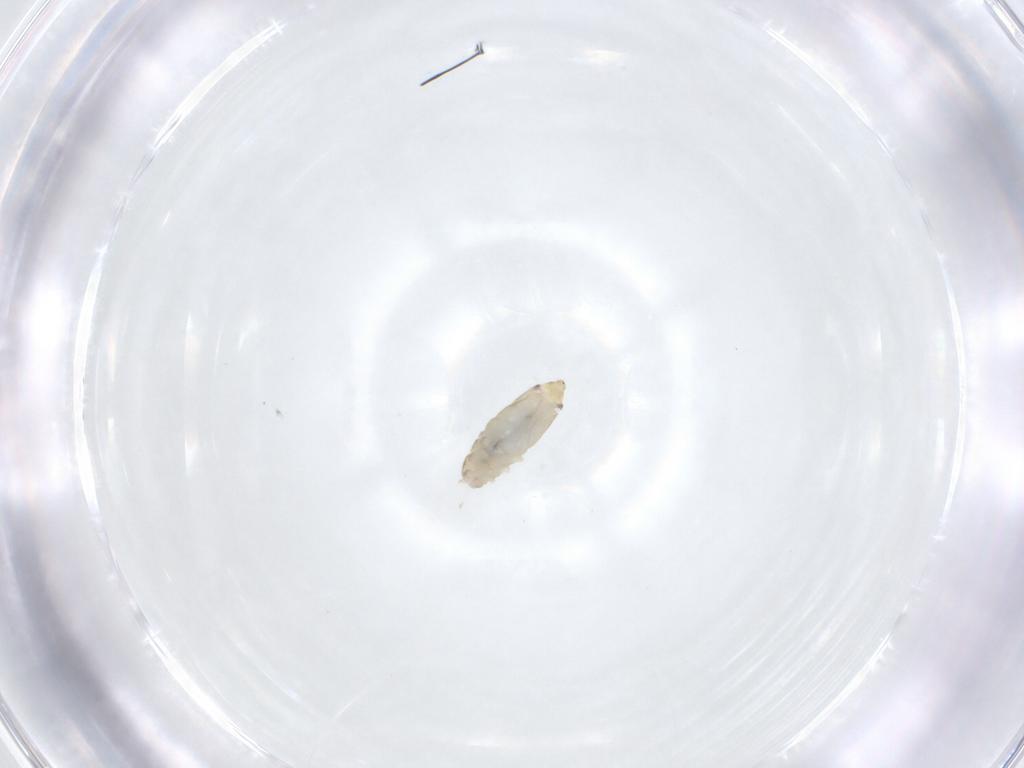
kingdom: Animalia
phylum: Arthropoda
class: Collembola
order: Entomobryomorpha
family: Entomobryidae
